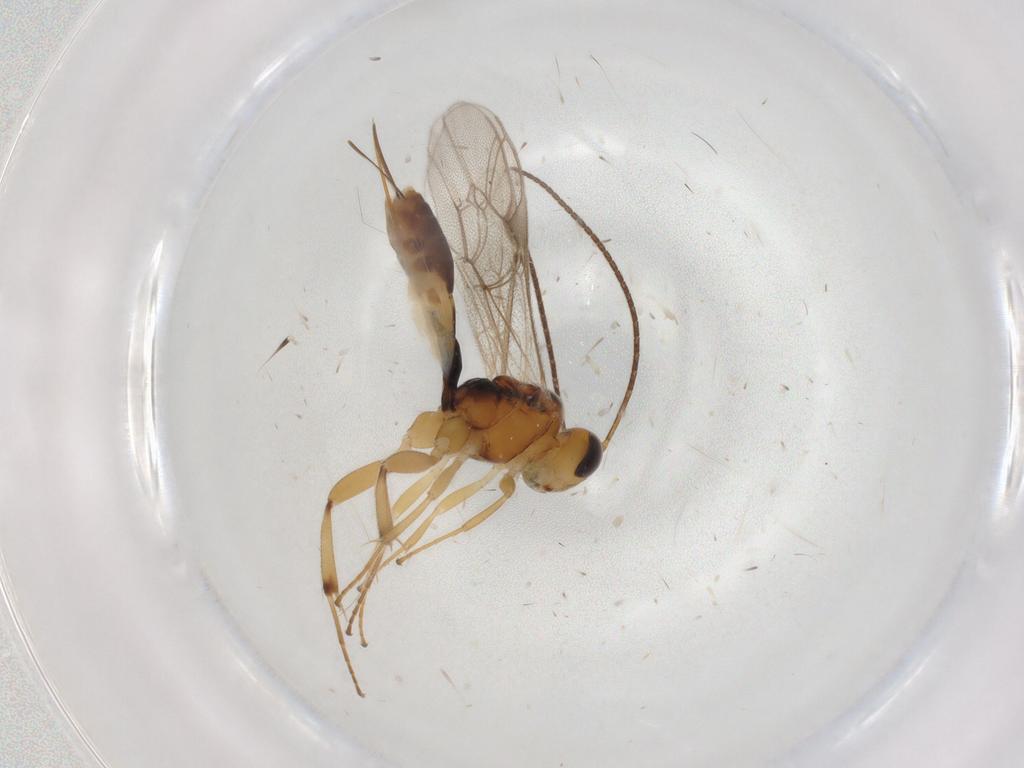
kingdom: Animalia
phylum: Arthropoda
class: Insecta
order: Hymenoptera
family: Ichneumonidae
